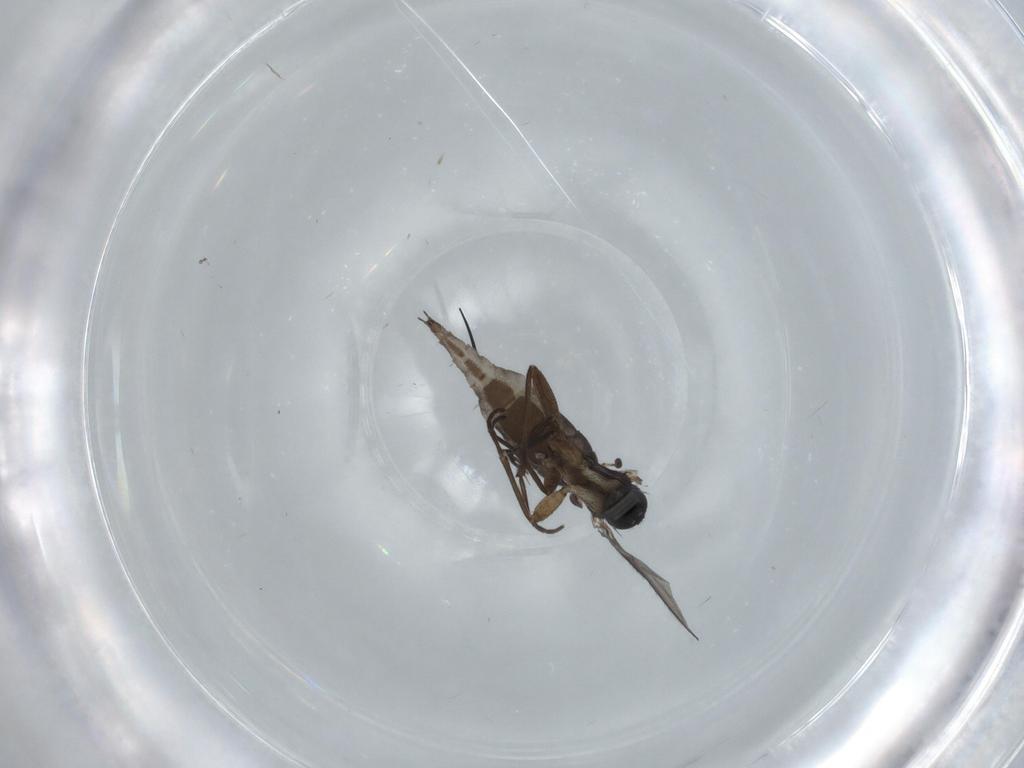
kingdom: Animalia
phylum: Arthropoda
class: Insecta
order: Diptera
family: Sciaridae
